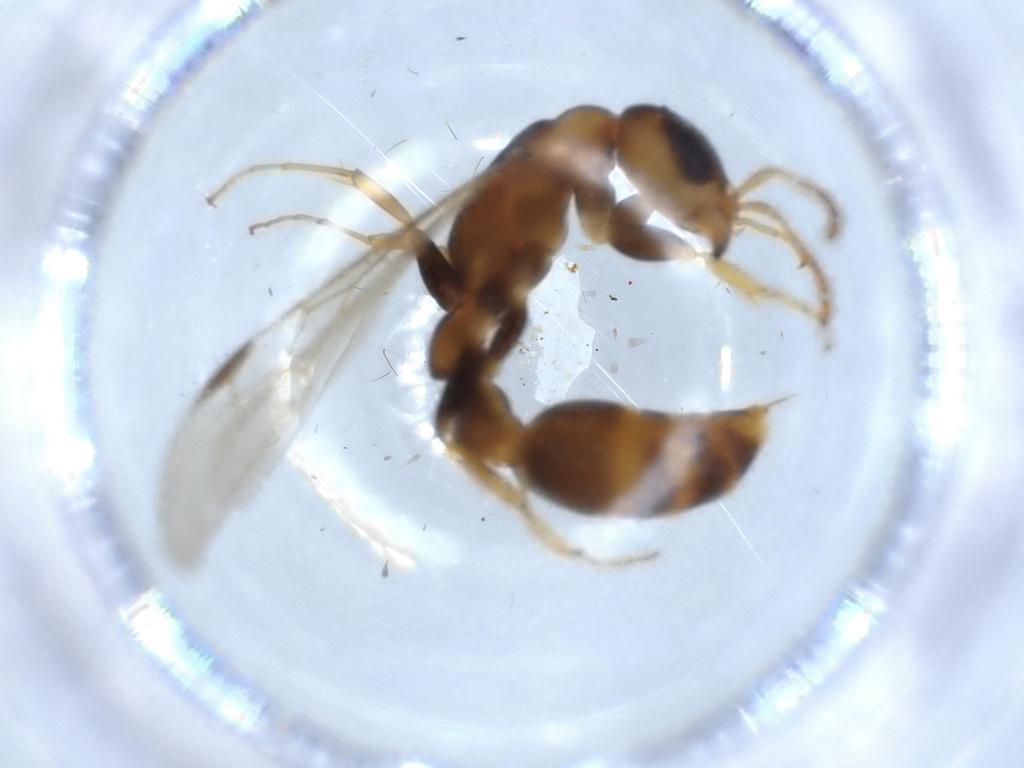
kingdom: Animalia
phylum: Arthropoda
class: Insecta
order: Hymenoptera
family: Formicidae
